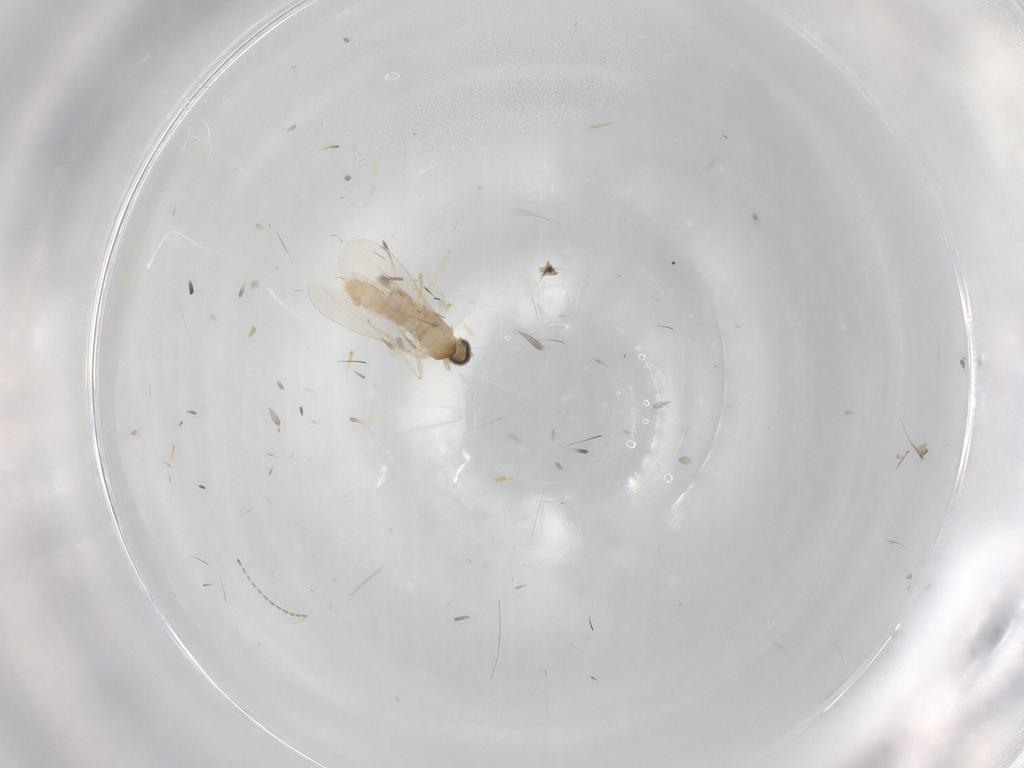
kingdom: Animalia
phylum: Arthropoda
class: Insecta
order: Diptera
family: Cecidomyiidae
